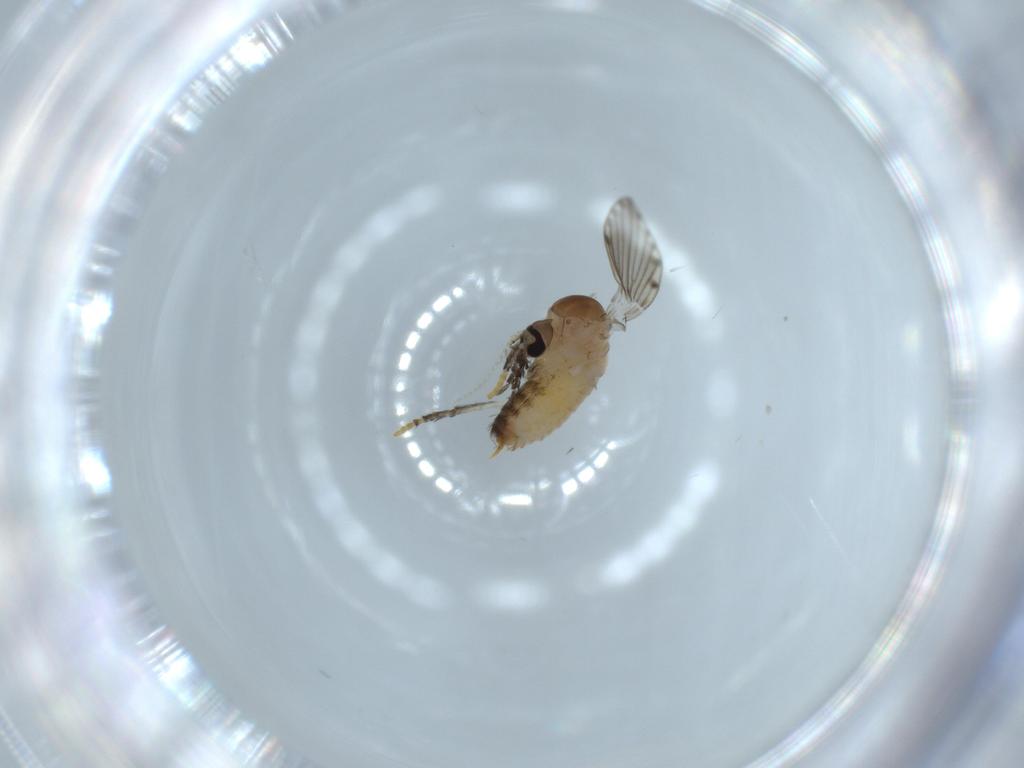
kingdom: Animalia
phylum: Arthropoda
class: Insecta
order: Diptera
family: Psychodidae
